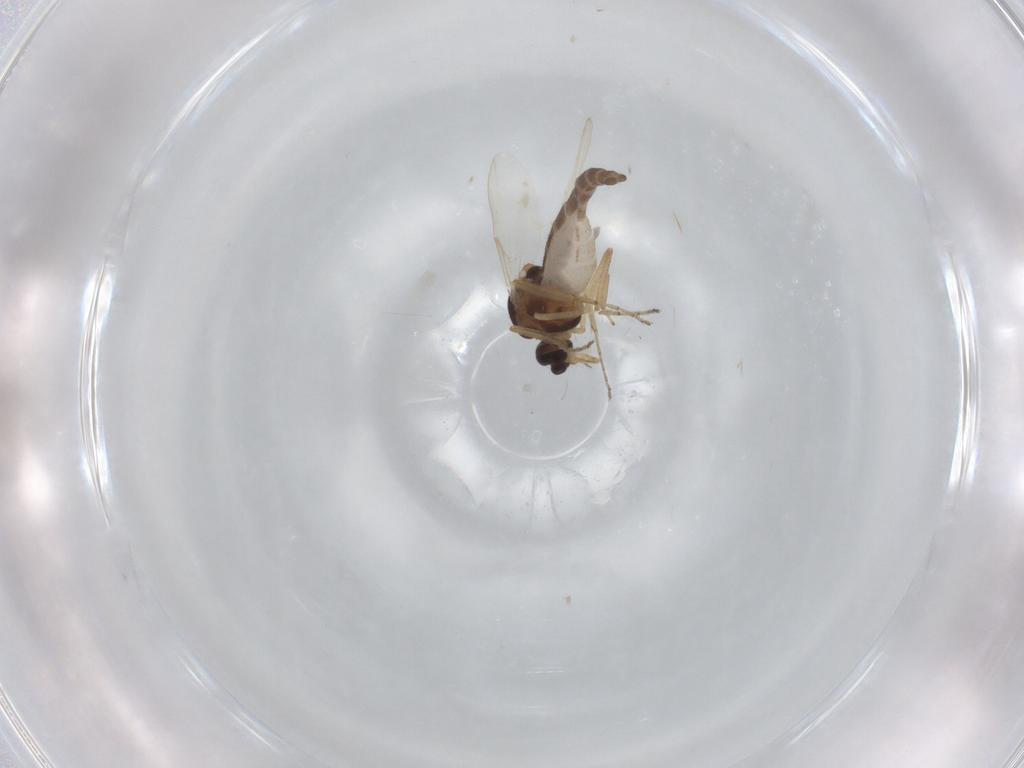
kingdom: Animalia
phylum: Arthropoda
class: Insecta
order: Diptera
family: Ceratopogonidae
